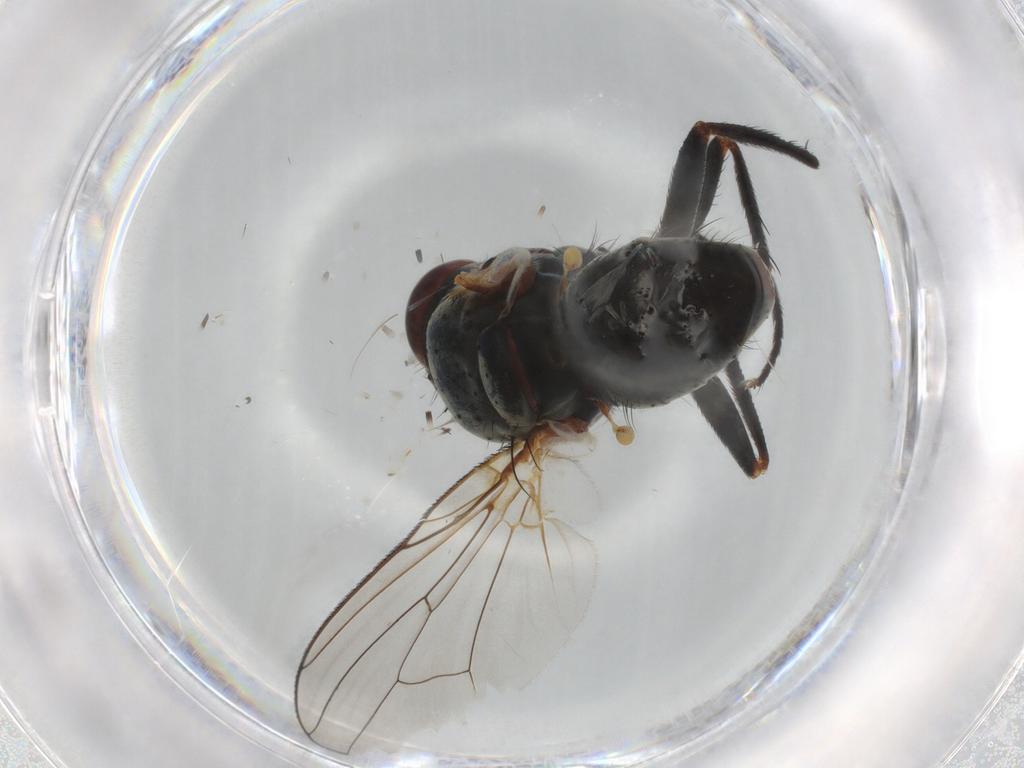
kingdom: Animalia
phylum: Arthropoda
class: Insecta
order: Diptera
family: Anthomyiidae
